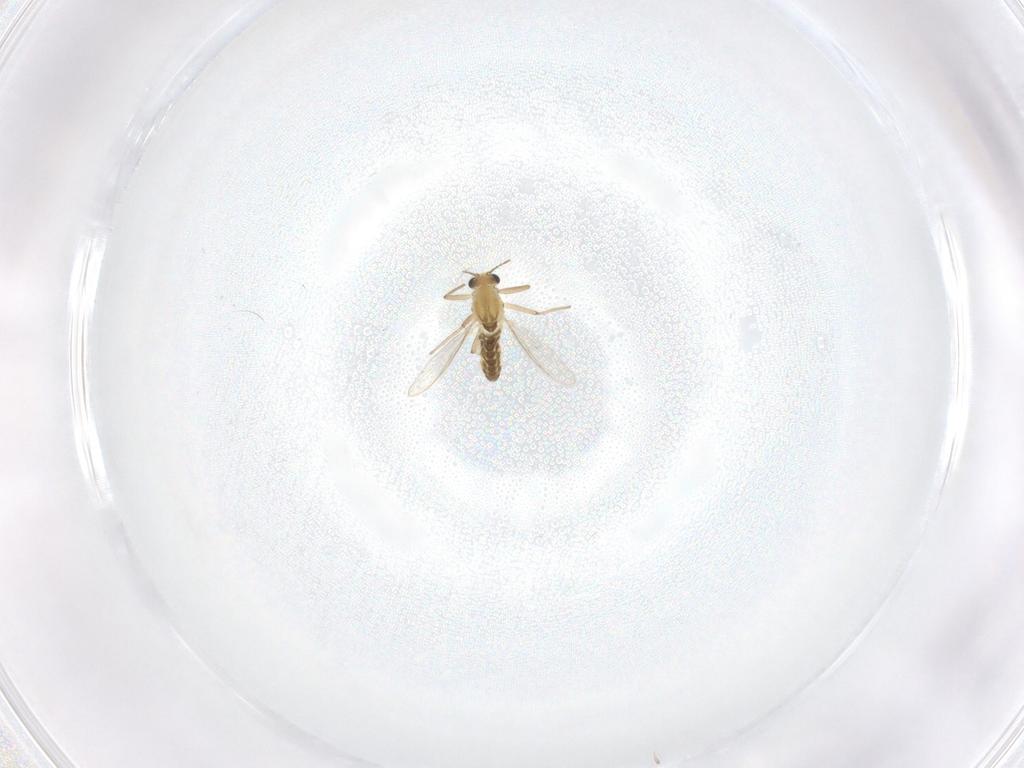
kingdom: Animalia
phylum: Arthropoda
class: Insecta
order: Diptera
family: Chironomidae
